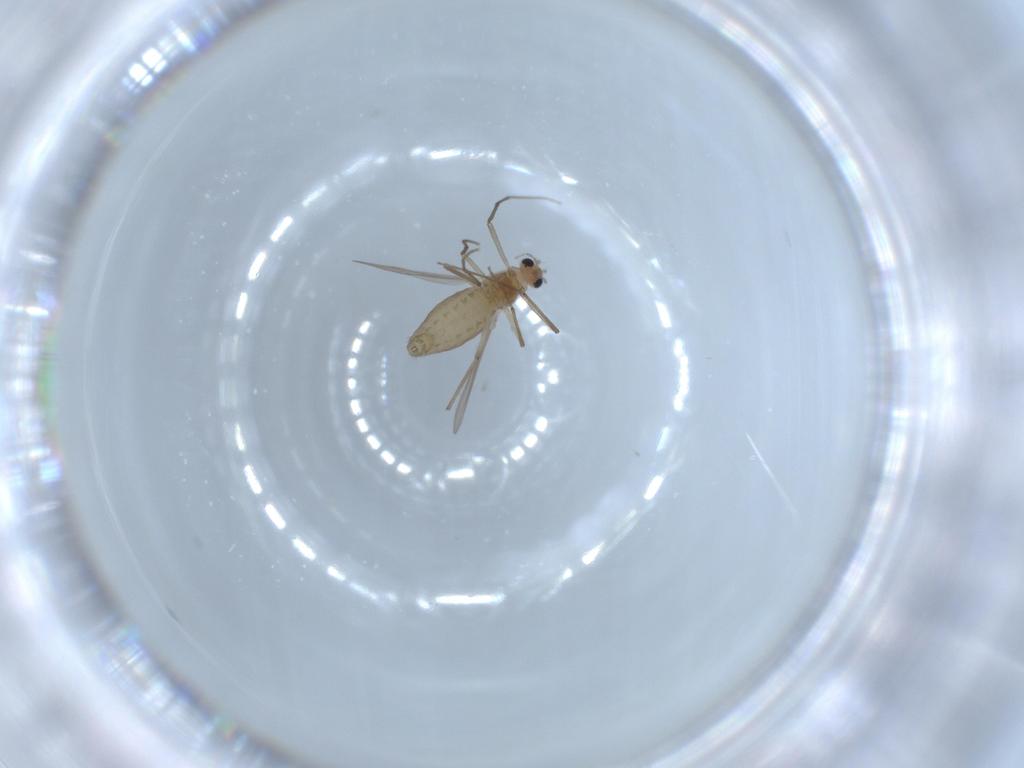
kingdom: Animalia
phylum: Arthropoda
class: Insecta
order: Diptera
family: Chironomidae
